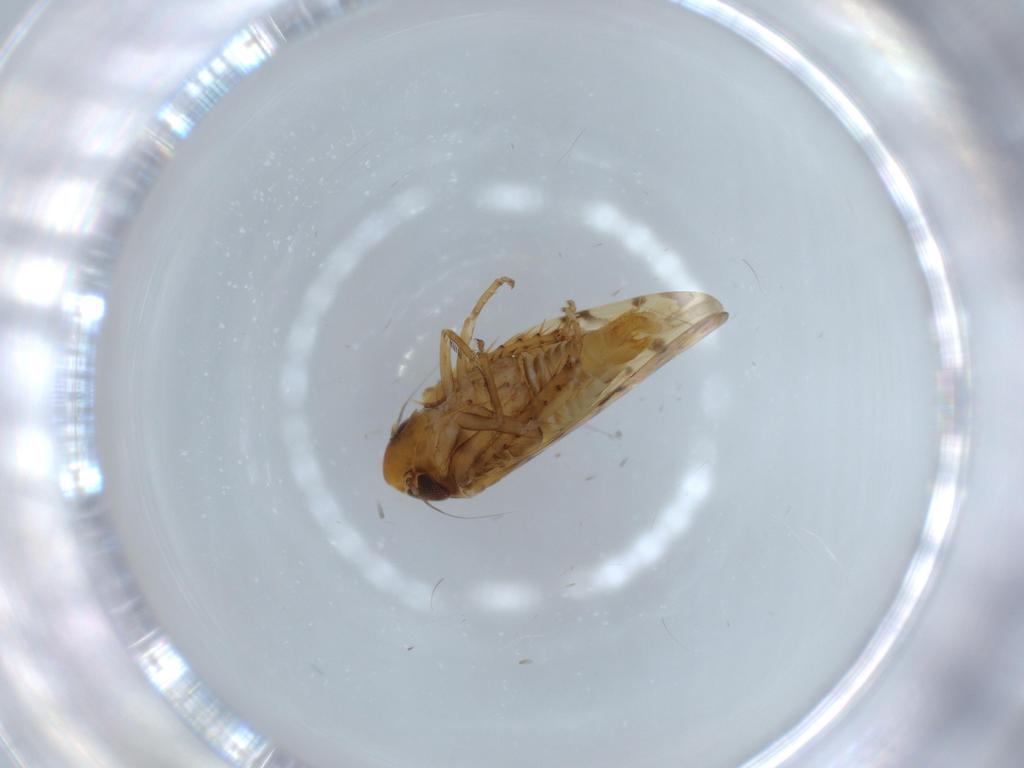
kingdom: Animalia
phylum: Arthropoda
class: Insecta
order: Hemiptera
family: Cicadellidae
